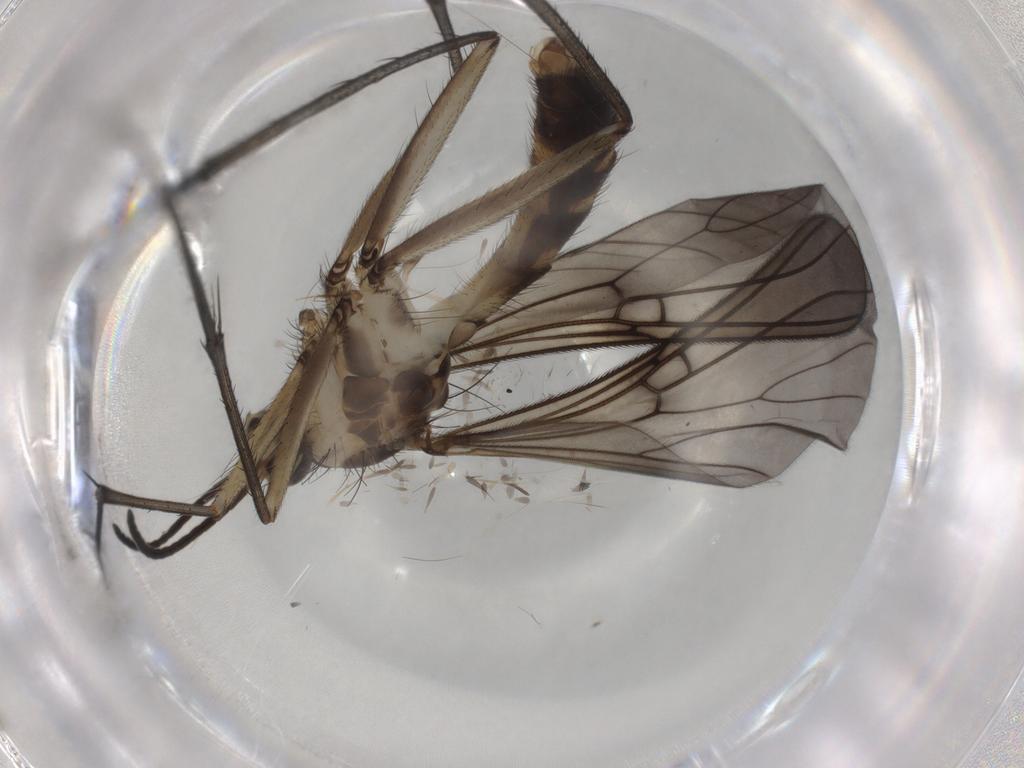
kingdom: Animalia
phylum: Arthropoda
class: Insecta
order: Diptera
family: Mycetophilidae
